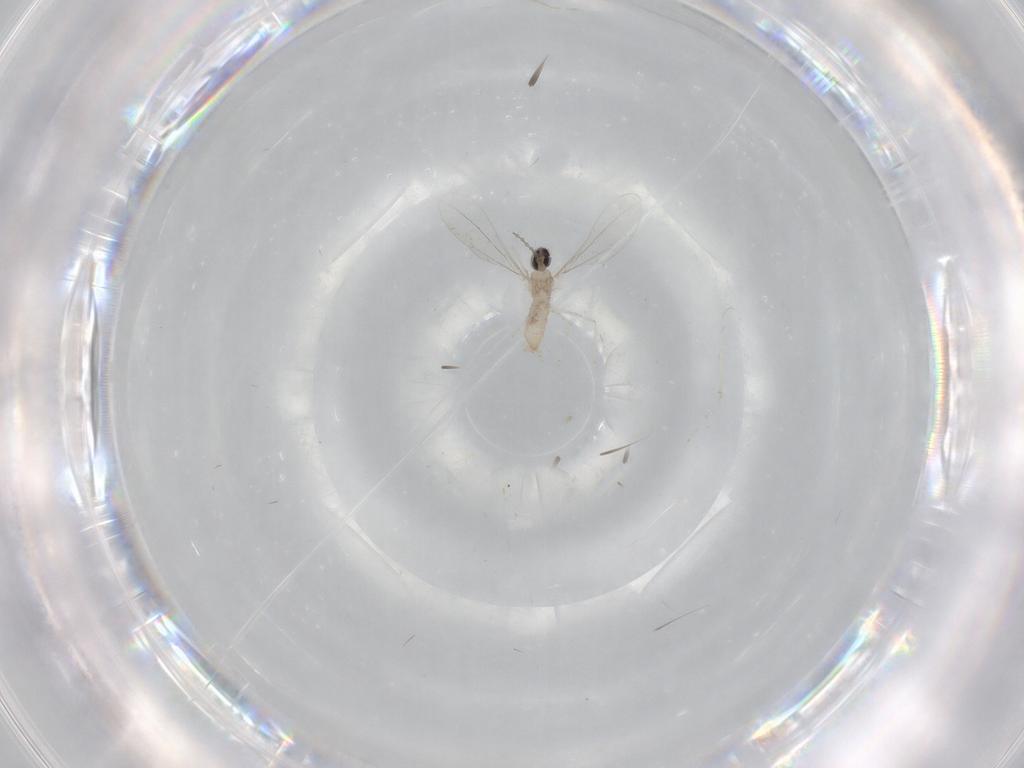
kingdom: Animalia
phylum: Arthropoda
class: Insecta
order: Diptera
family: Cecidomyiidae
